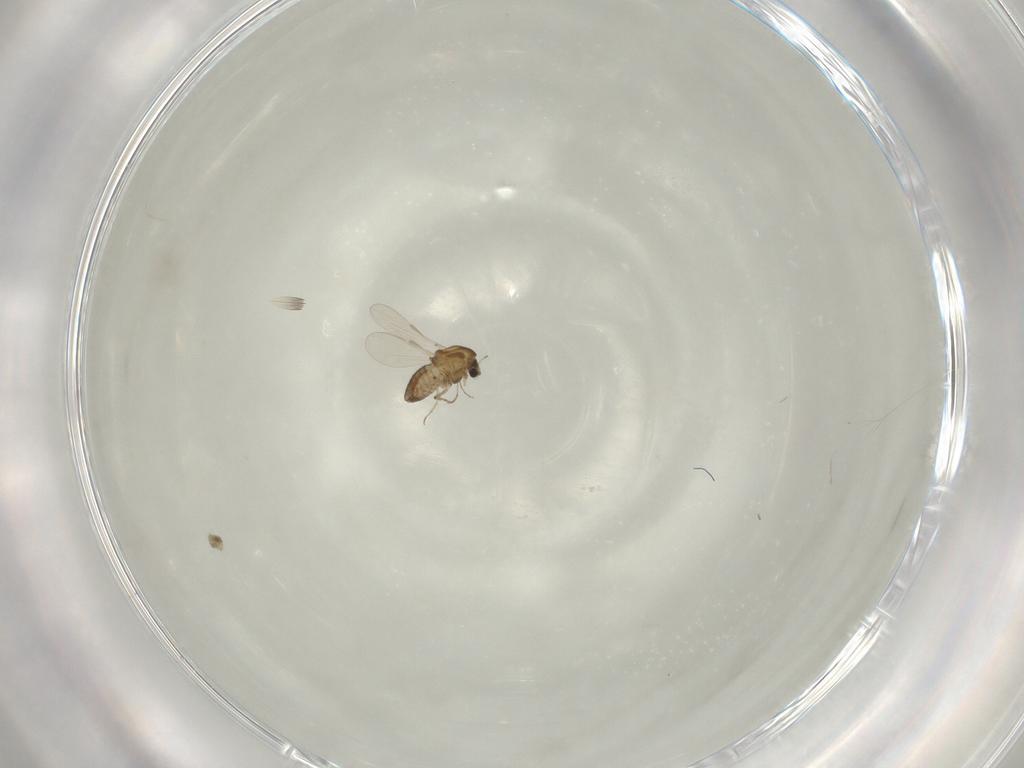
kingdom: Animalia
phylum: Arthropoda
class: Insecta
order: Diptera
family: Chironomidae
